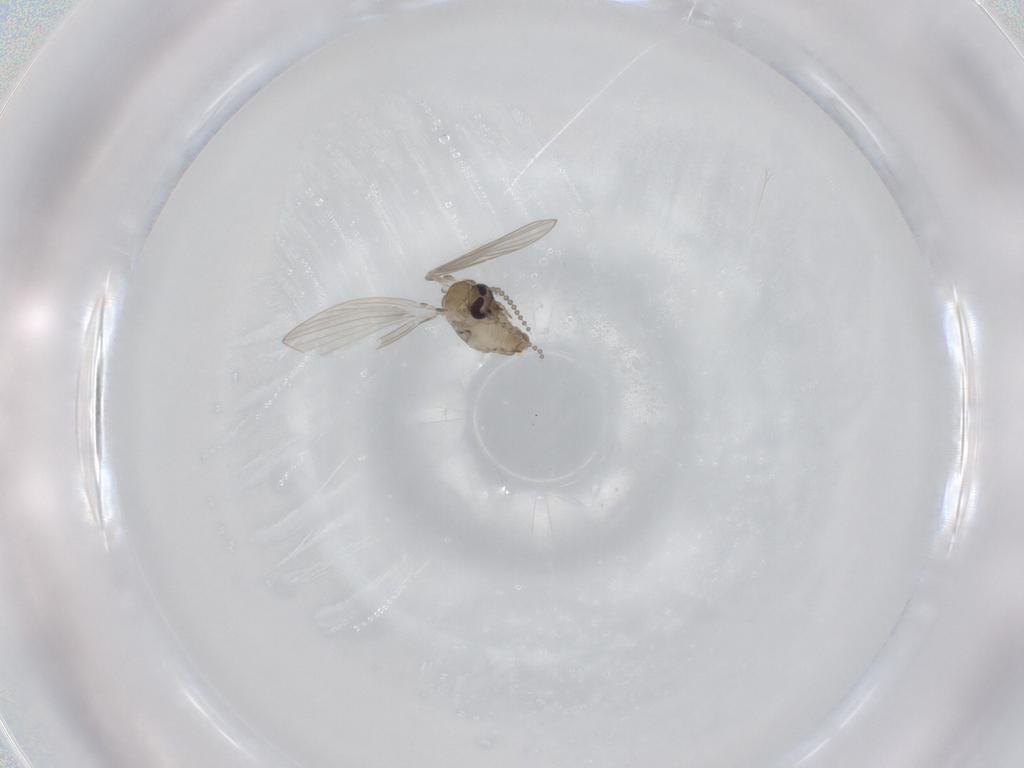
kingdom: Animalia
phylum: Arthropoda
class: Insecta
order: Diptera
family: Psychodidae
